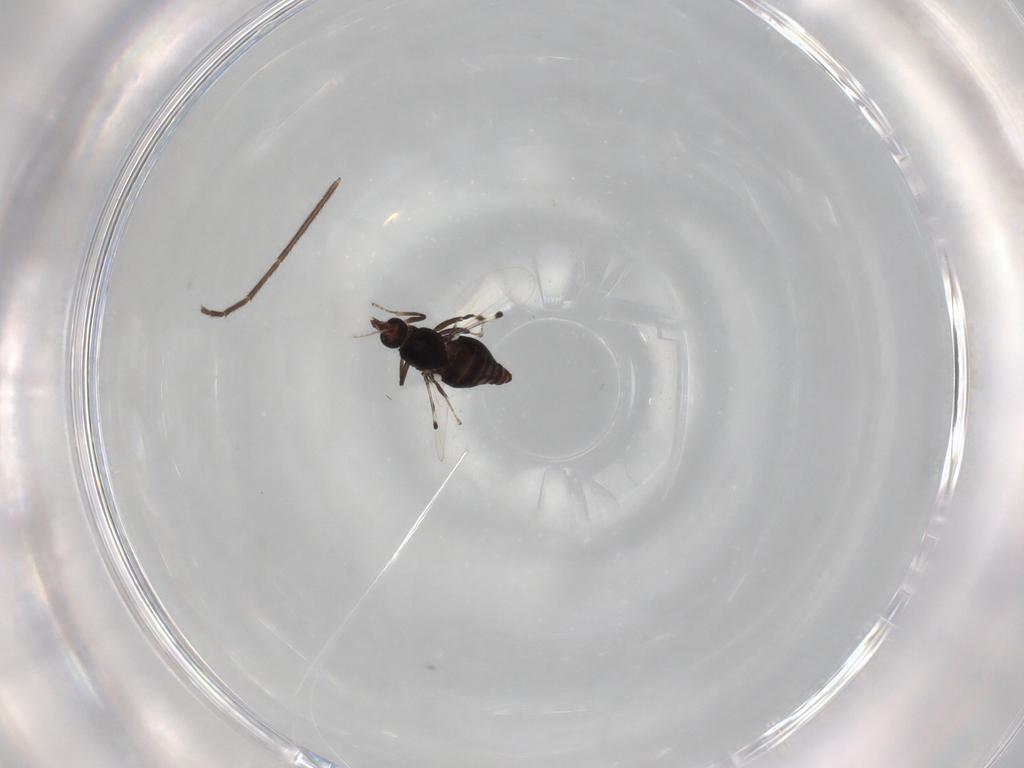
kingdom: Animalia
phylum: Arthropoda
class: Insecta
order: Diptera
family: Ceratopogonidae
